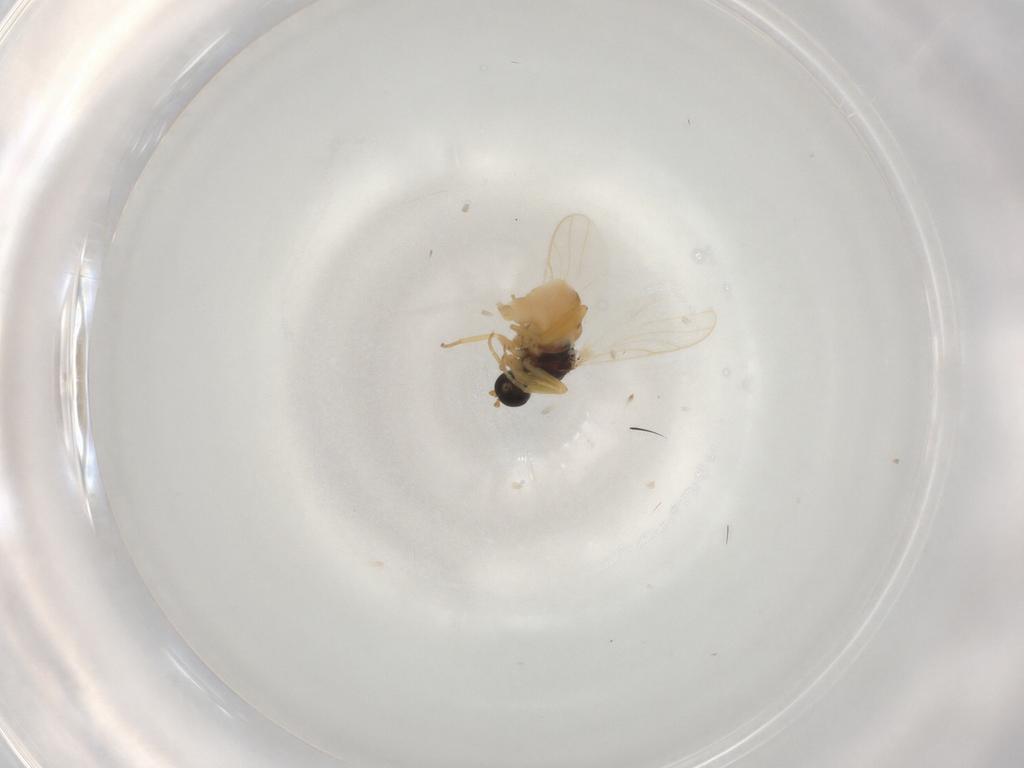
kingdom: Animalia
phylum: Arthropoda
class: Insecta
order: Diptera
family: Hybotidae
